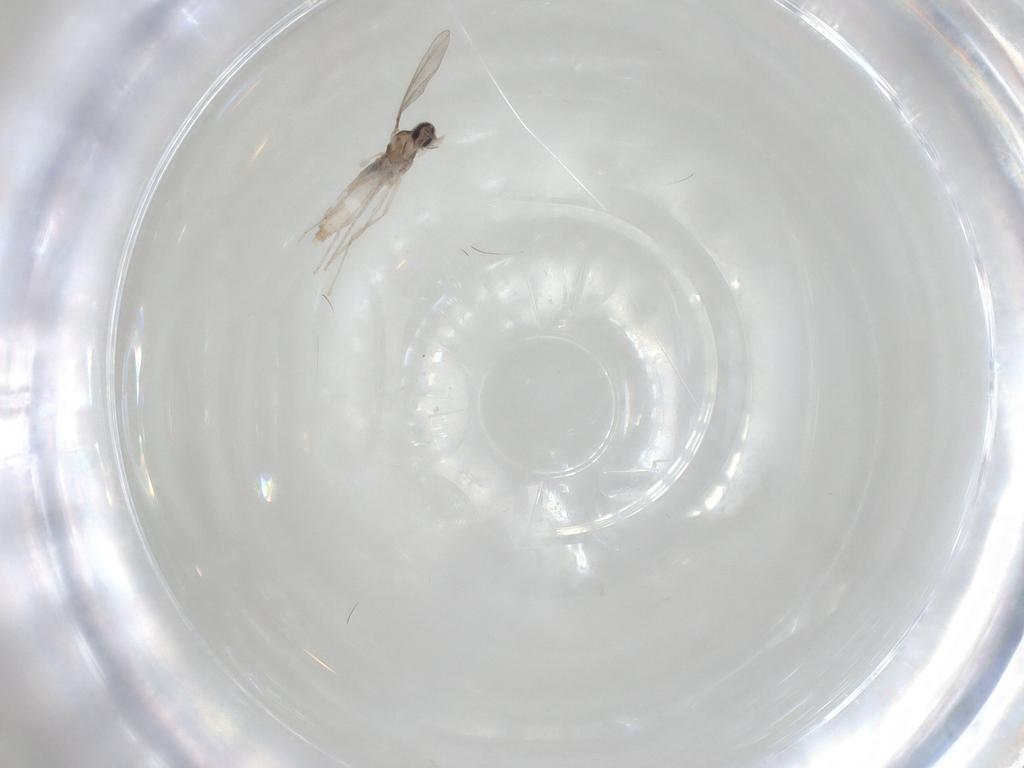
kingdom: Animalia
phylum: Arthropoda
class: Insecta
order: Diptera
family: Cecidomyiidae
